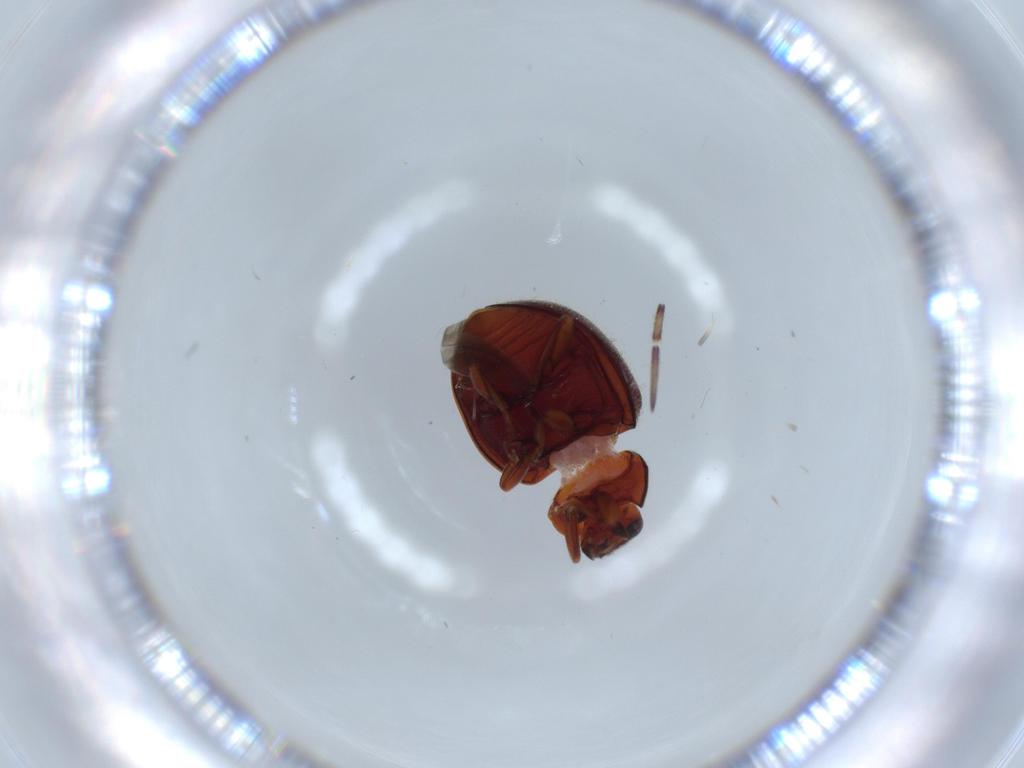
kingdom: Animalia
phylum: Arthropoda
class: Insecta
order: Coleoptera
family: Coccinellidae
